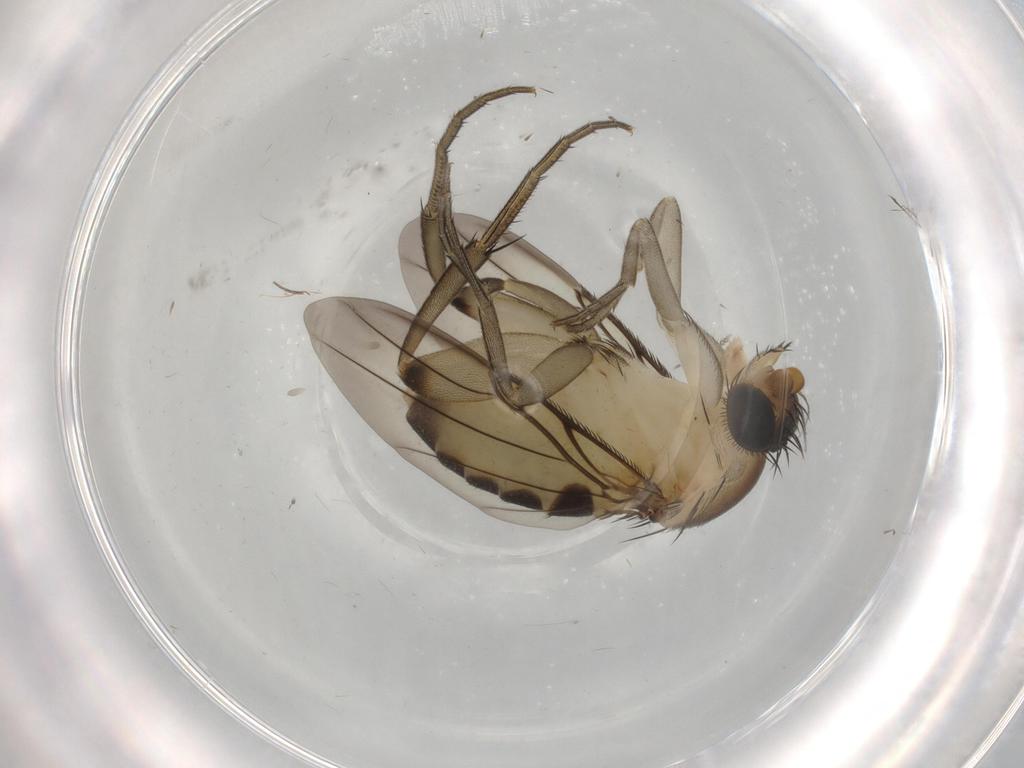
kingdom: Animalia
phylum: Arthropoda
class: Insecta
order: Diptera
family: Phoridae
